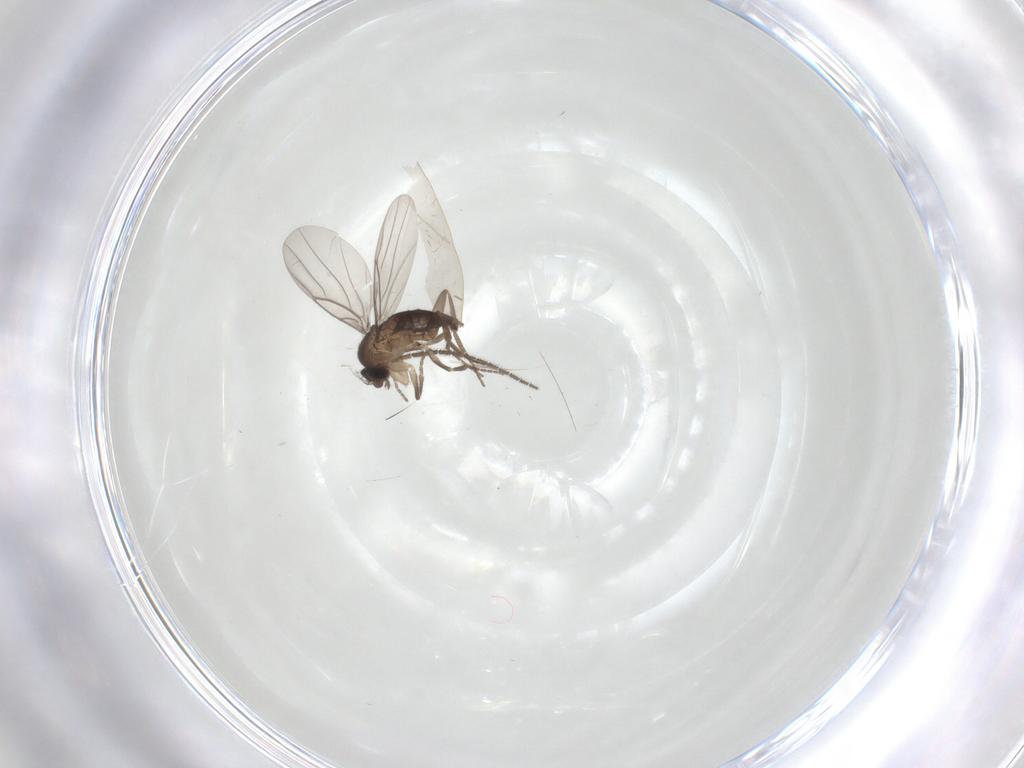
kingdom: Animalia
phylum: Arthropoda
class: Insecta
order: Diptera
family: Sciaridae
